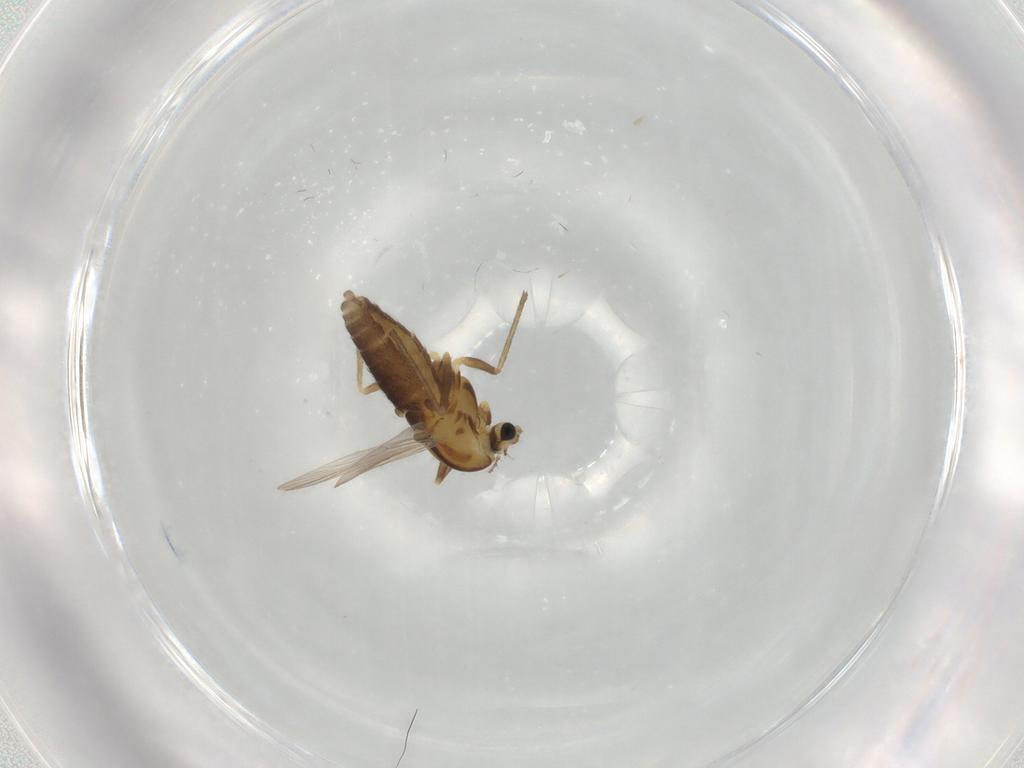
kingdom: Animalia
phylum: Arthropoda
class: Insecta
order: Diptera
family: Chironomidae
